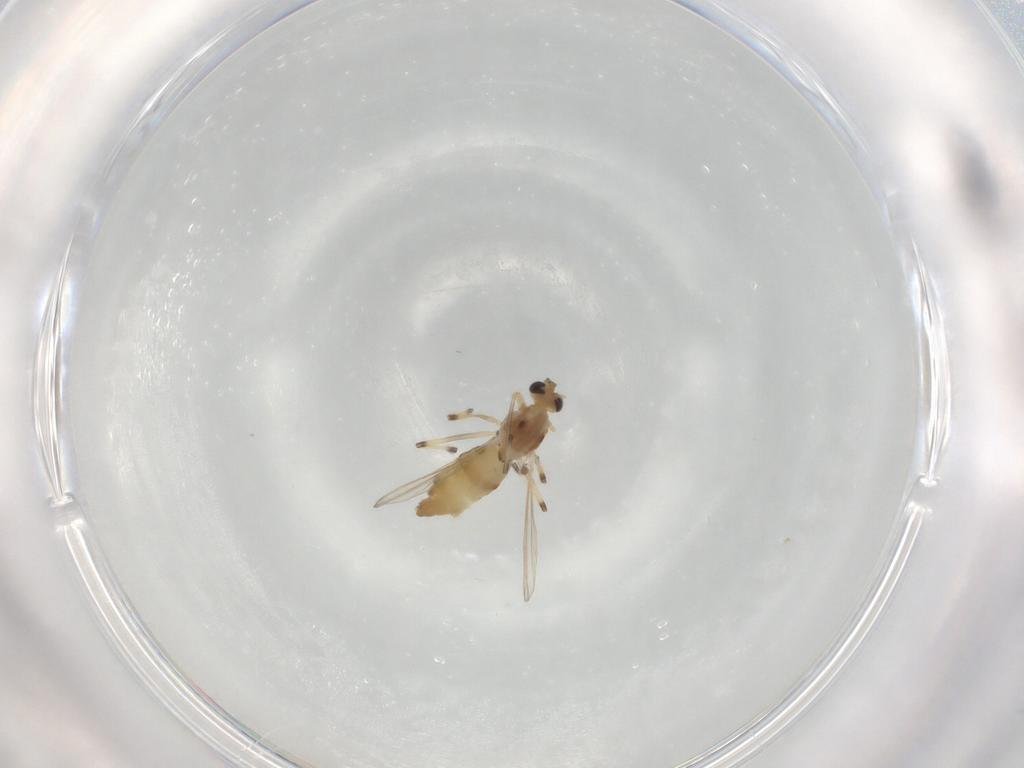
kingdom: Animalia
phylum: Arthropoda
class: Insecta
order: Diptera
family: Chironomidae
